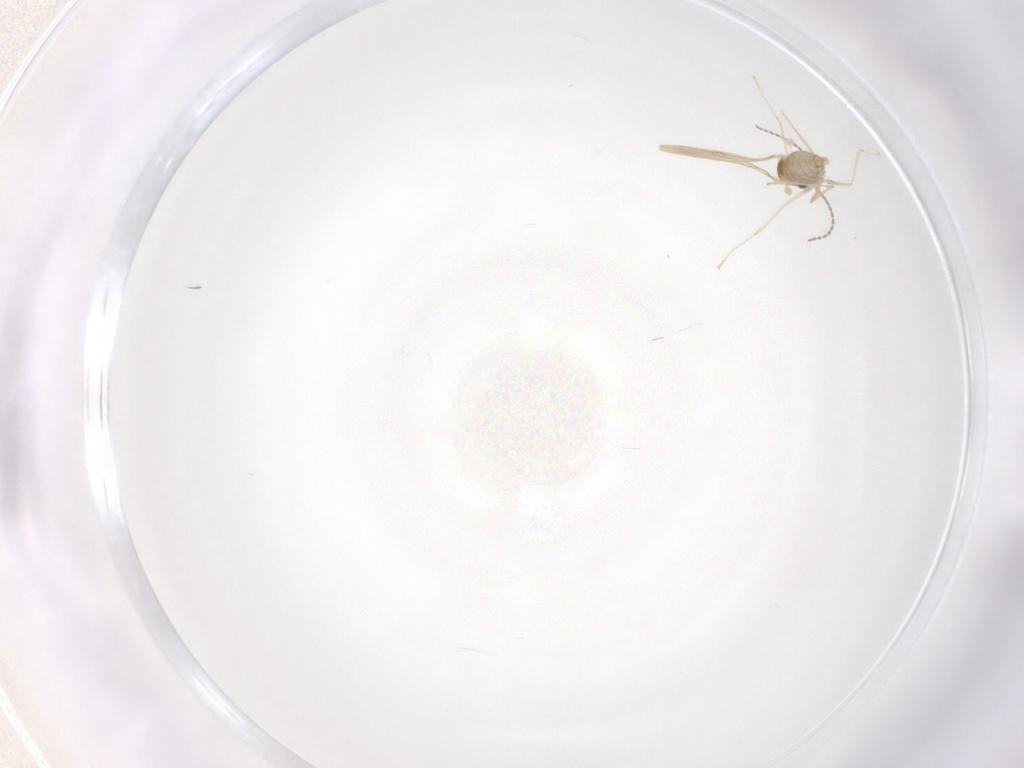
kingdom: Animalia
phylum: Arthropoda
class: Insecta
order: Diptera
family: Cecidomyiidae
